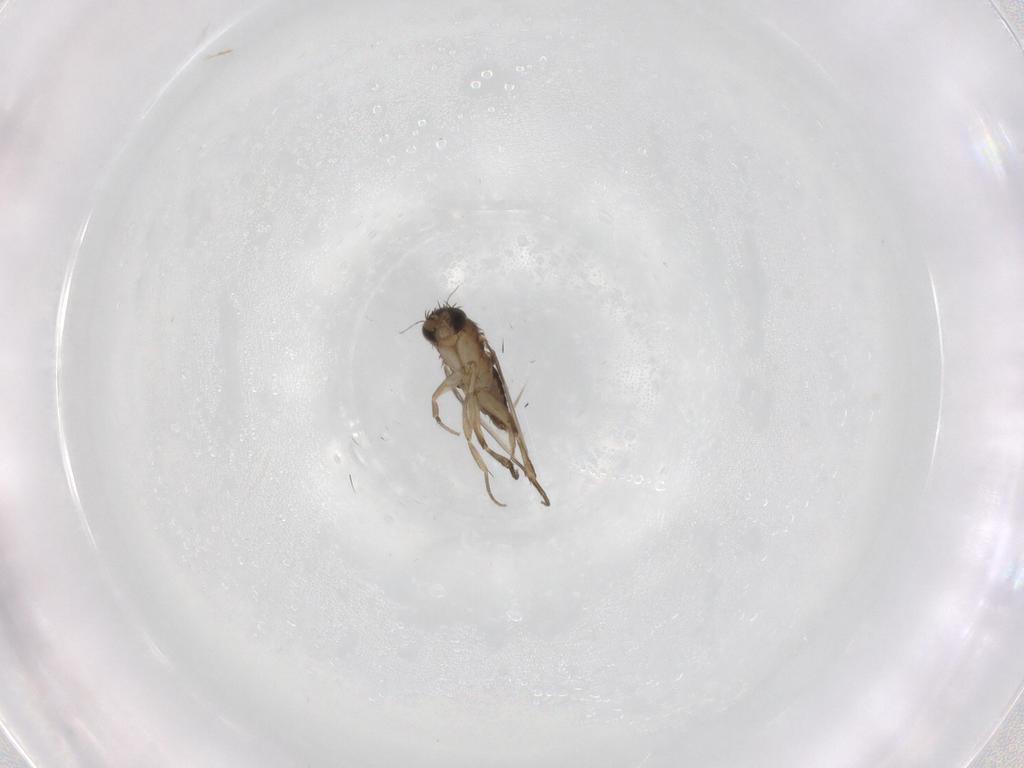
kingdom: Animalia
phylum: Arthropoda
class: Insecta
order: Diptera
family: Phoridae
